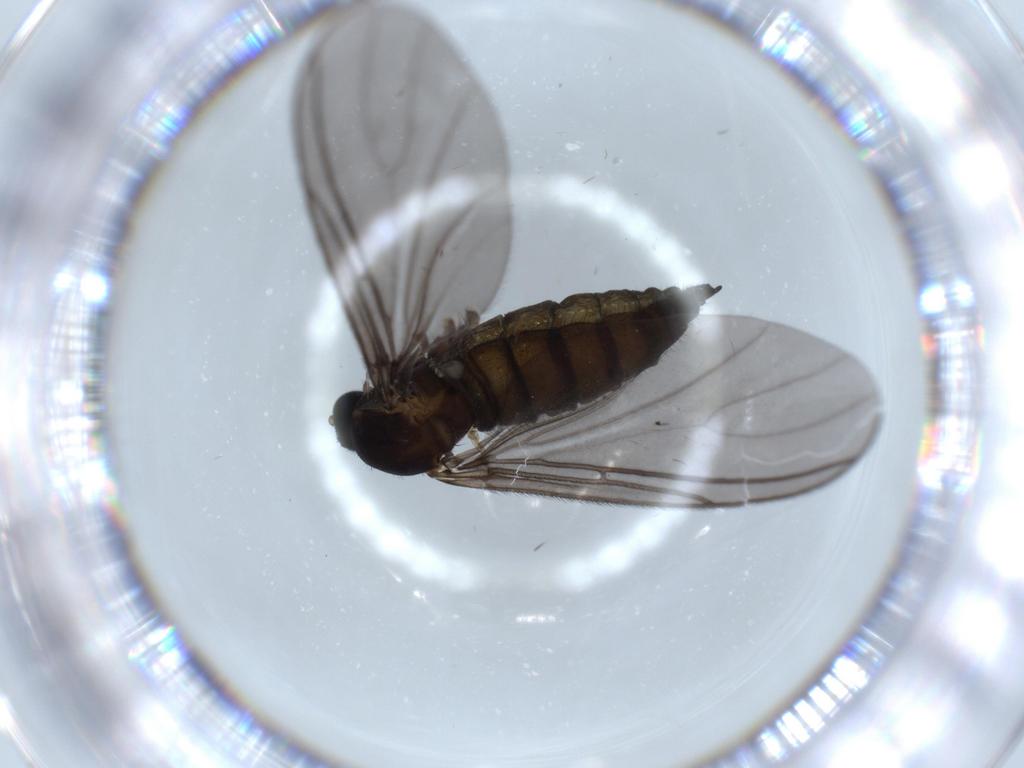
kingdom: Animalia
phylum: Arthropoda
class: Insecta
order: Diptera
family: Sciaridae
